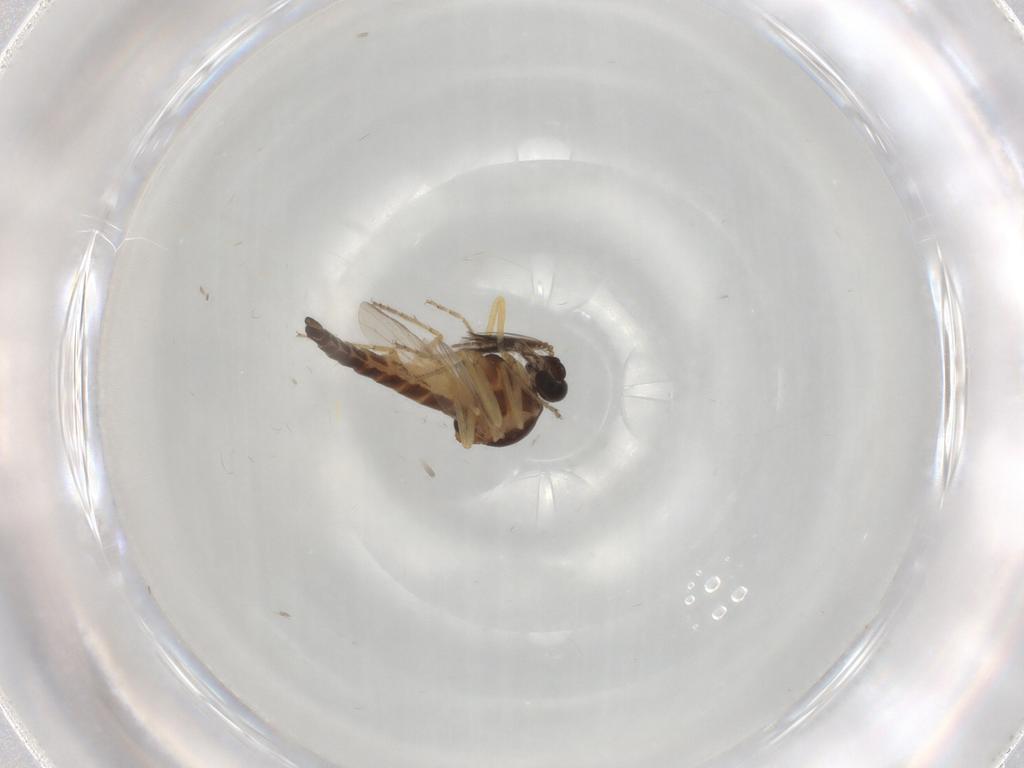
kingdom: Animalia
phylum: Arthropoda
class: Insecta
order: Diptera
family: Ceratopogonidae
